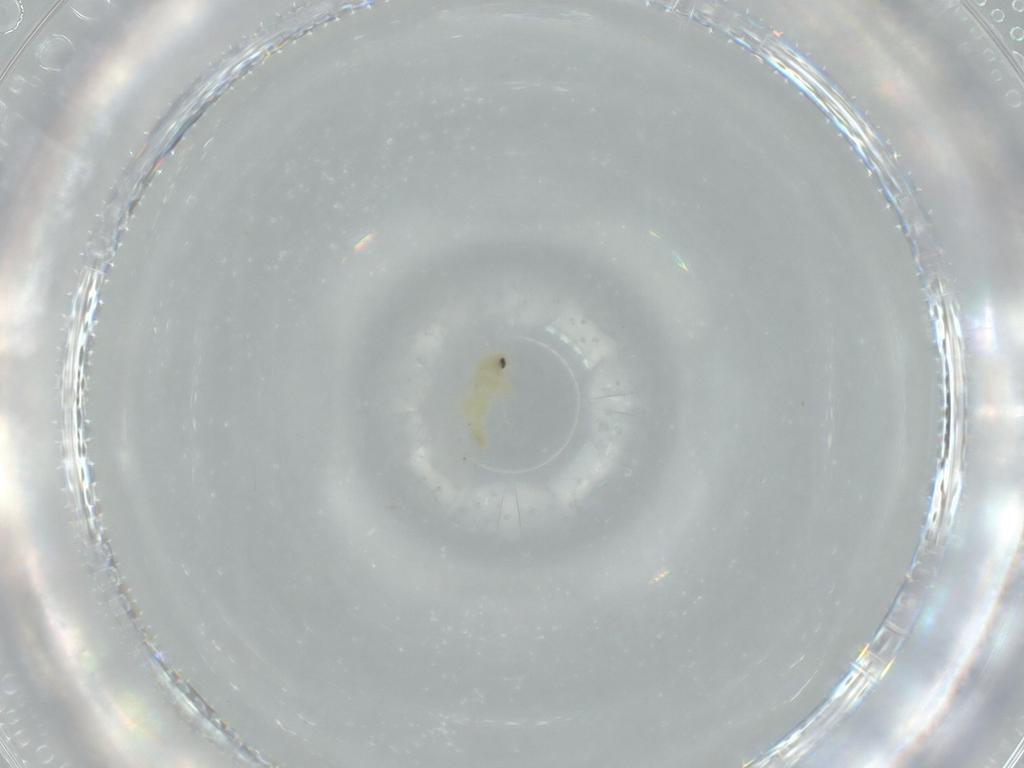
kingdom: Animalia
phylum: Arthropoda
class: Insecta
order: Hemiptera
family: Aleyrodidae
